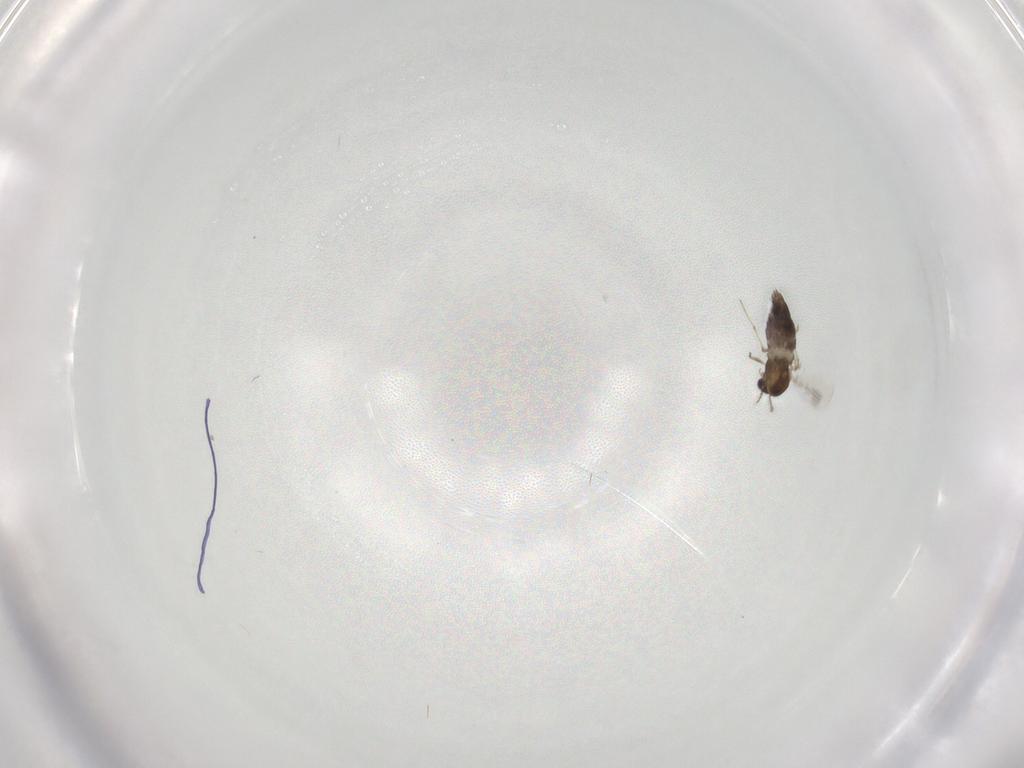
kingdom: Animalia
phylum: Arthropoda
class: Insecta
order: Diptera
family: Chironomidae
